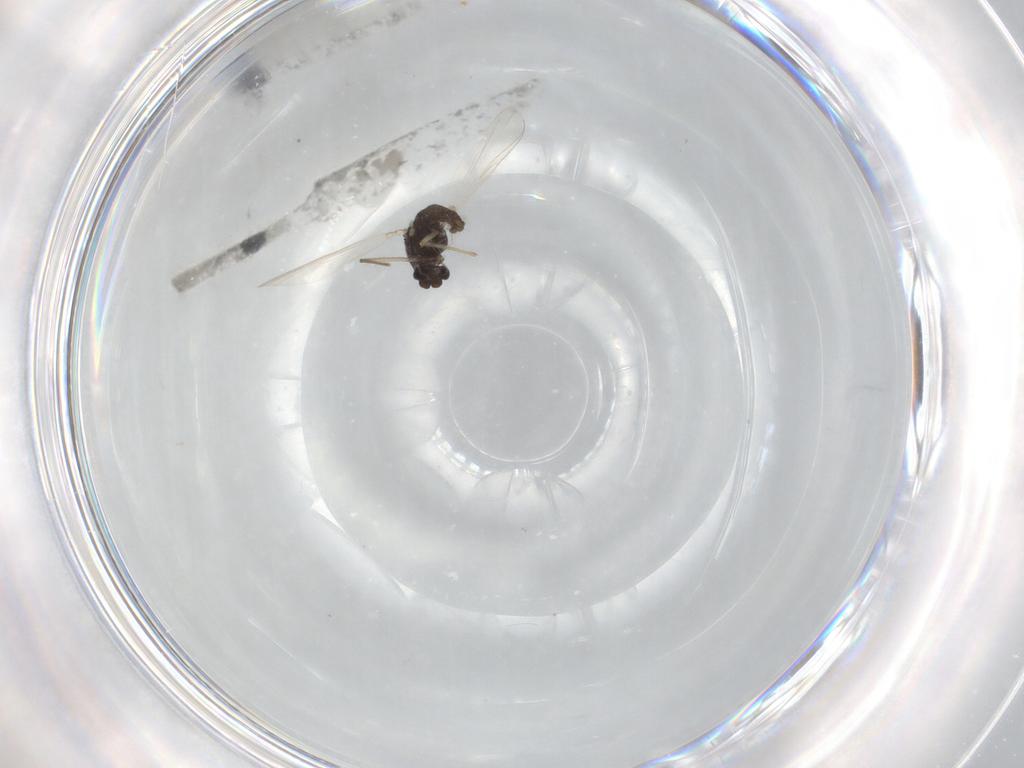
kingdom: Animalia
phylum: Arthropoda
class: Insecta
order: Diptera
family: Chironomidae
